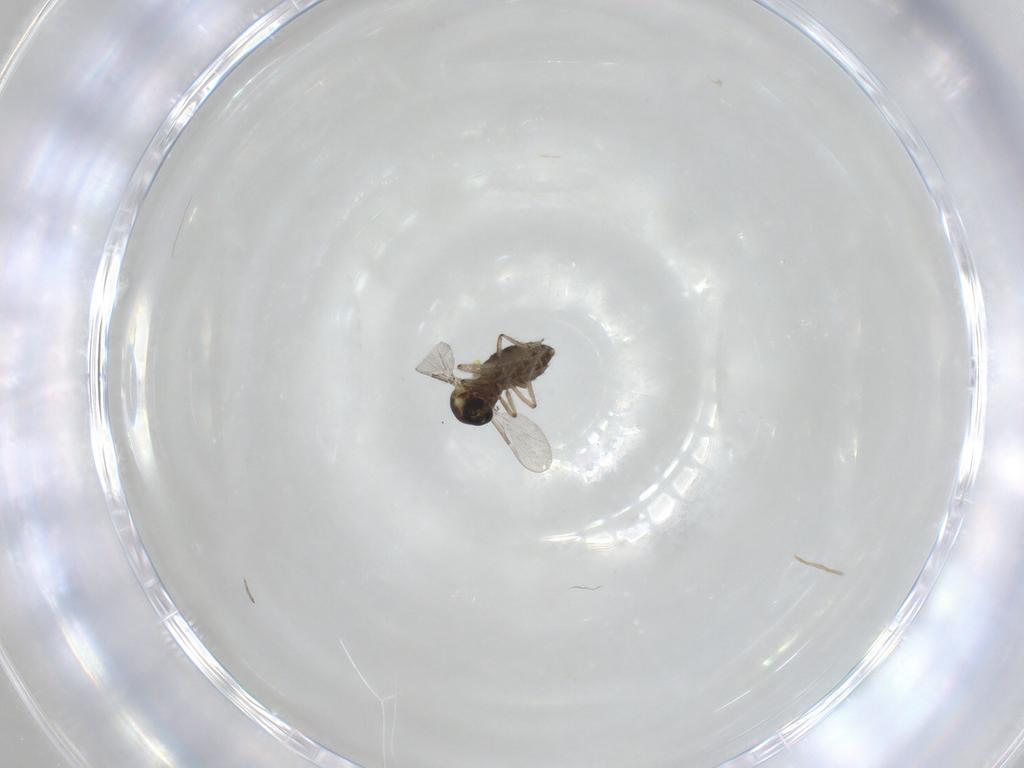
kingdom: Animalia
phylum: Arthropoda
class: Insecta
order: Diptera
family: Ceratopogonidae
